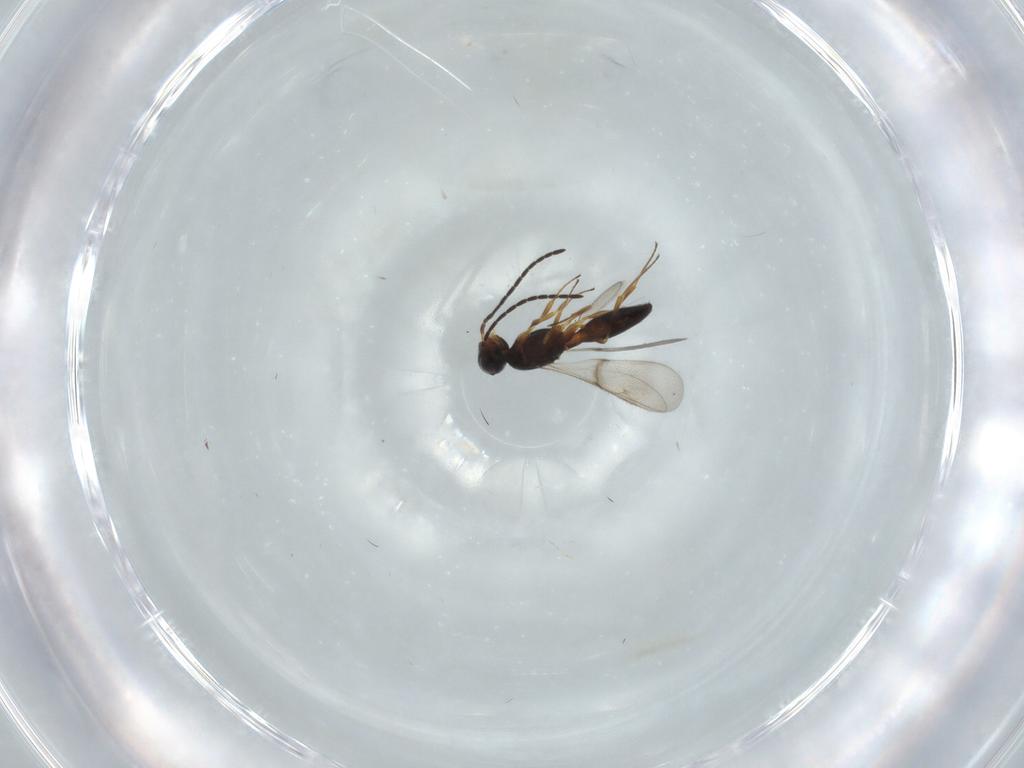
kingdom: Animalia
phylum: Arthropoda
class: Insecta
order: Hymenoptera
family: Scelionidae
